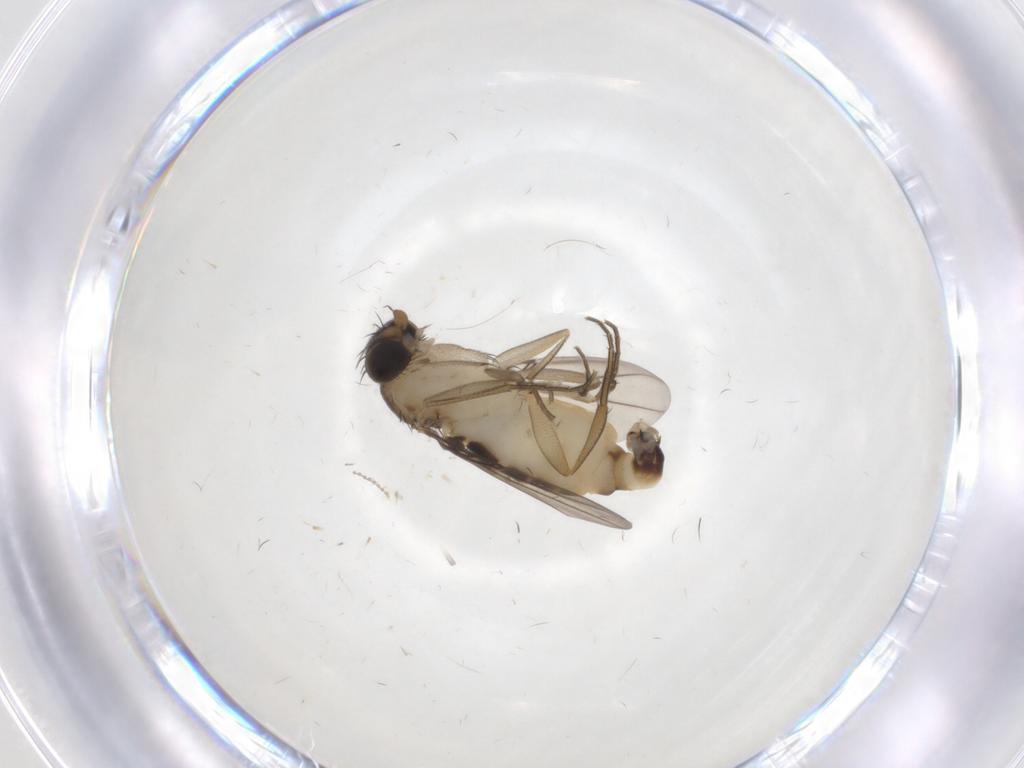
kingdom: Animalia
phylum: Arthropoda
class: Insecta
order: Diptera
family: Phoridae
